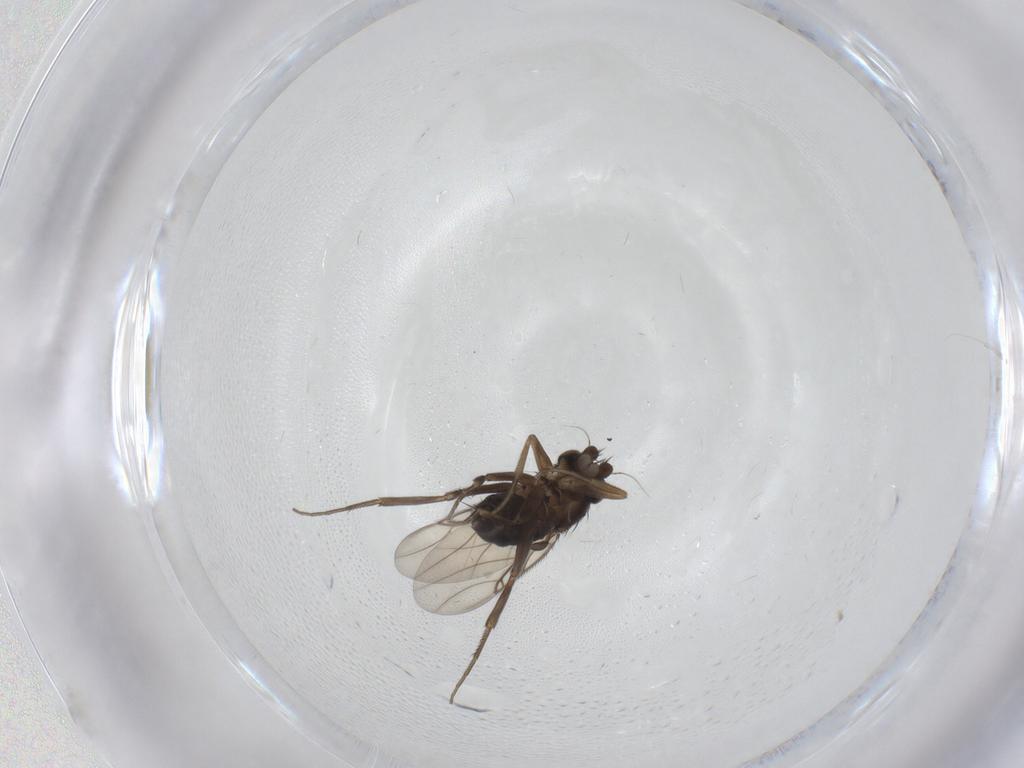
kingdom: Animalia
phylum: Arthropoda
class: Insecta
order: Diptera
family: Phoridae
